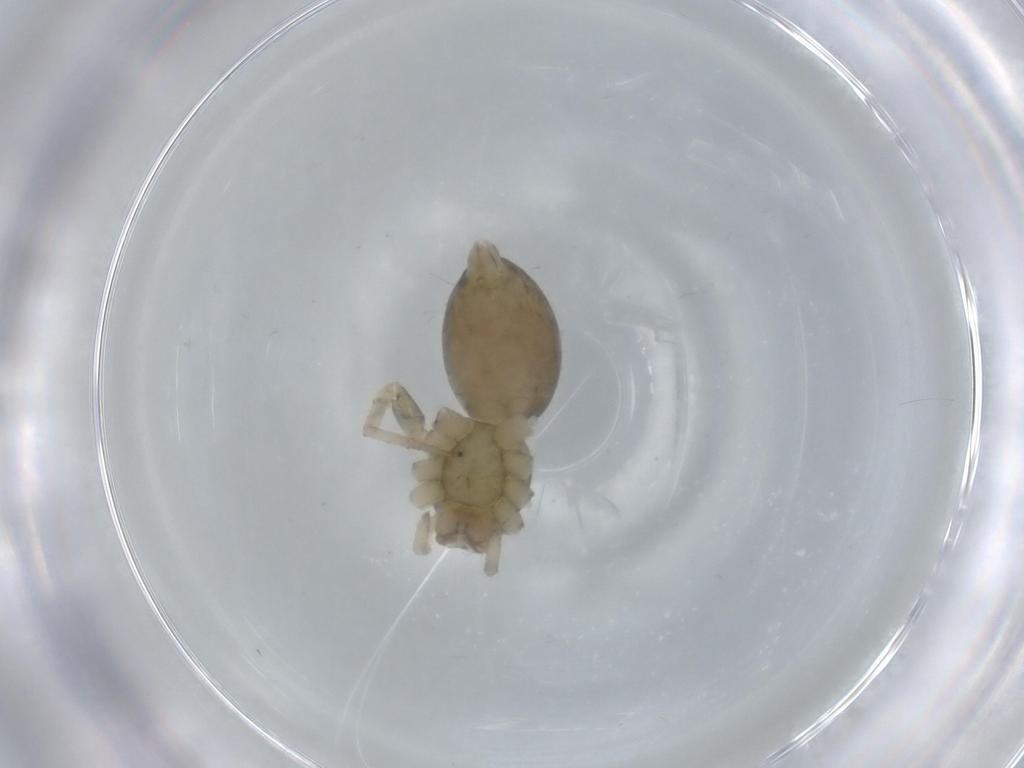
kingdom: Animalia
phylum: Arthropoda
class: Arachnida
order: Araneae
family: Anyphaenidae
